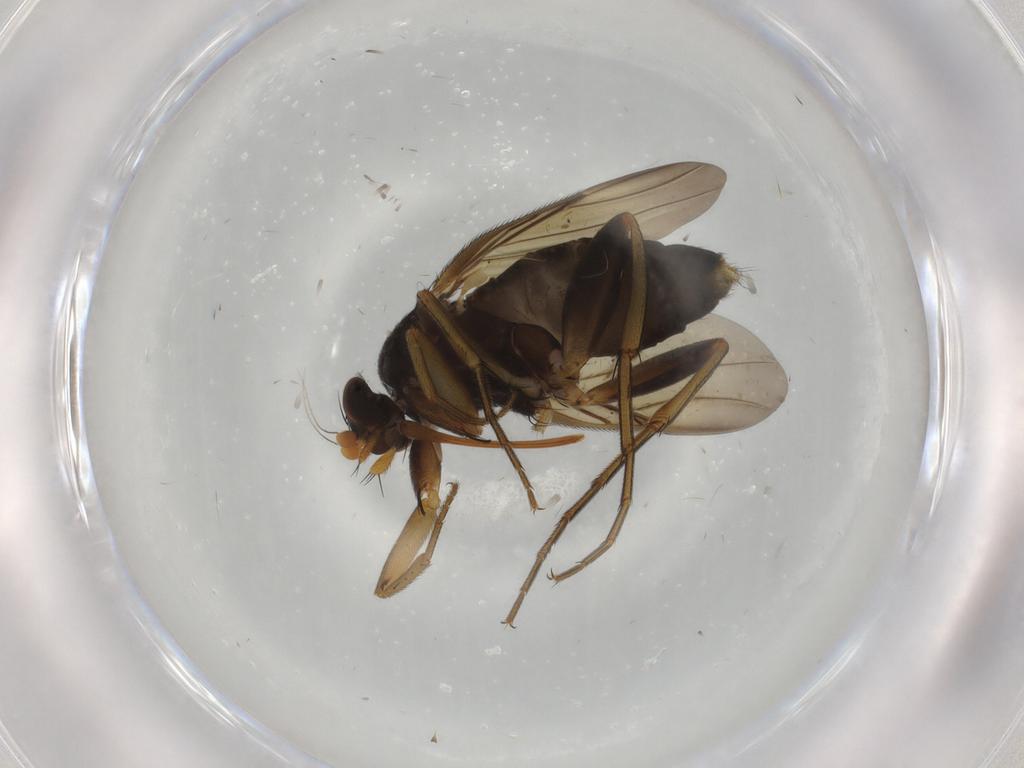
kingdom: Animalia
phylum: Arthropoda
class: Insecta
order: Diptera
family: Phoridae
